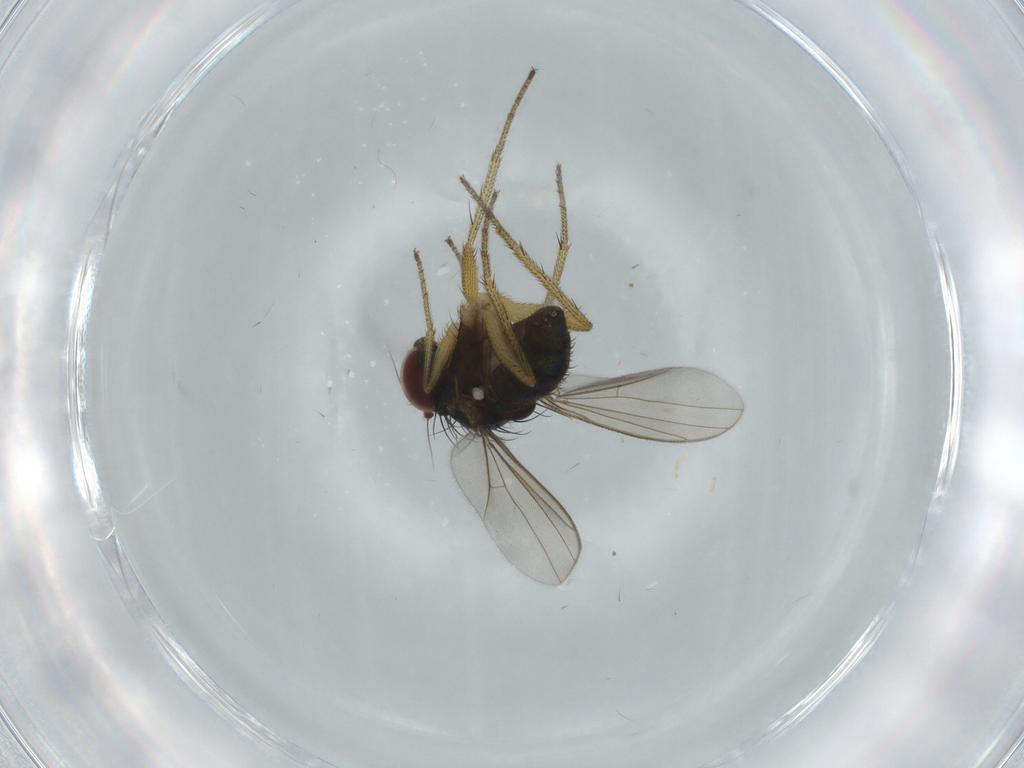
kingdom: Animalia
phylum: Arthropoda
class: Insecta
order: Diptera
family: Dolichopodidae
